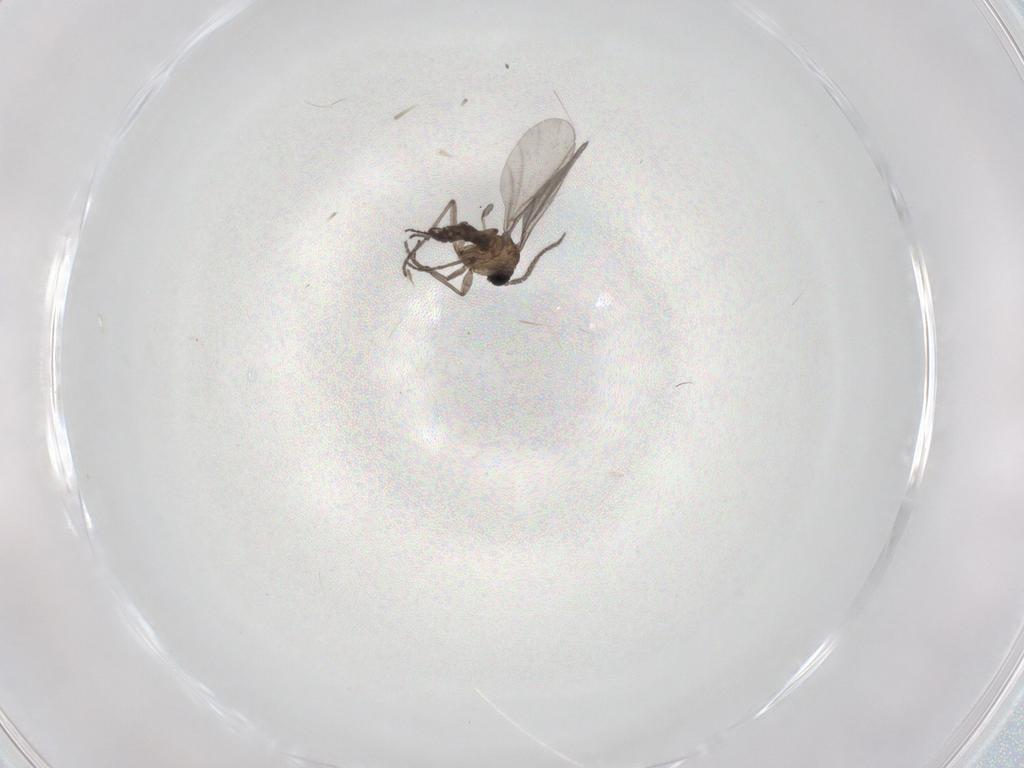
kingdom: Animalia
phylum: Arthropoda
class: Insecta
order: Diptera
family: Sciaridae
